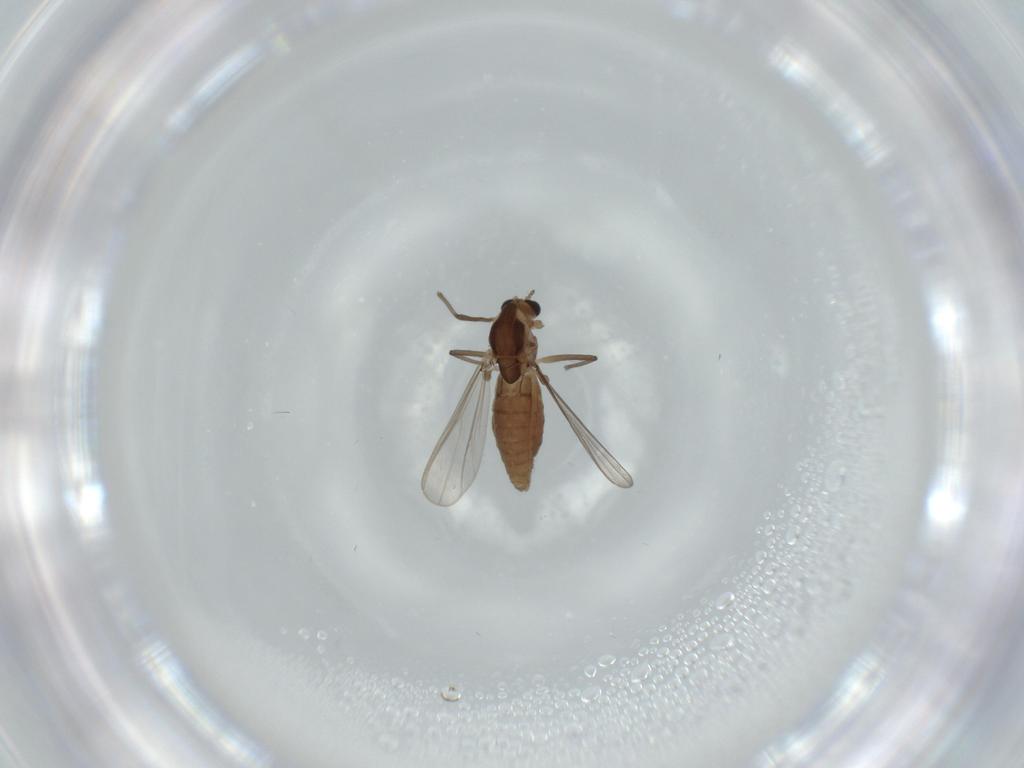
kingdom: Animalia
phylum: Arthropoda
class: Insecta
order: Diptera
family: Chironomidae
